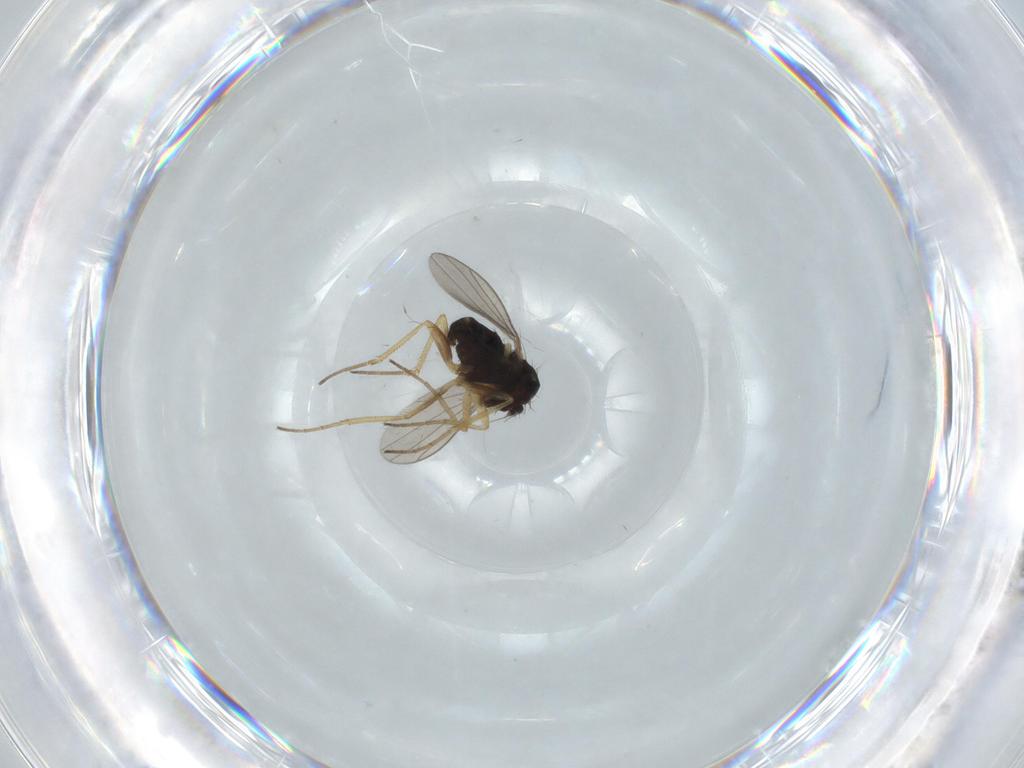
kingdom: Animalia
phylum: Arthropoda
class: Insecta
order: Diptera
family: Dolichopodidae
